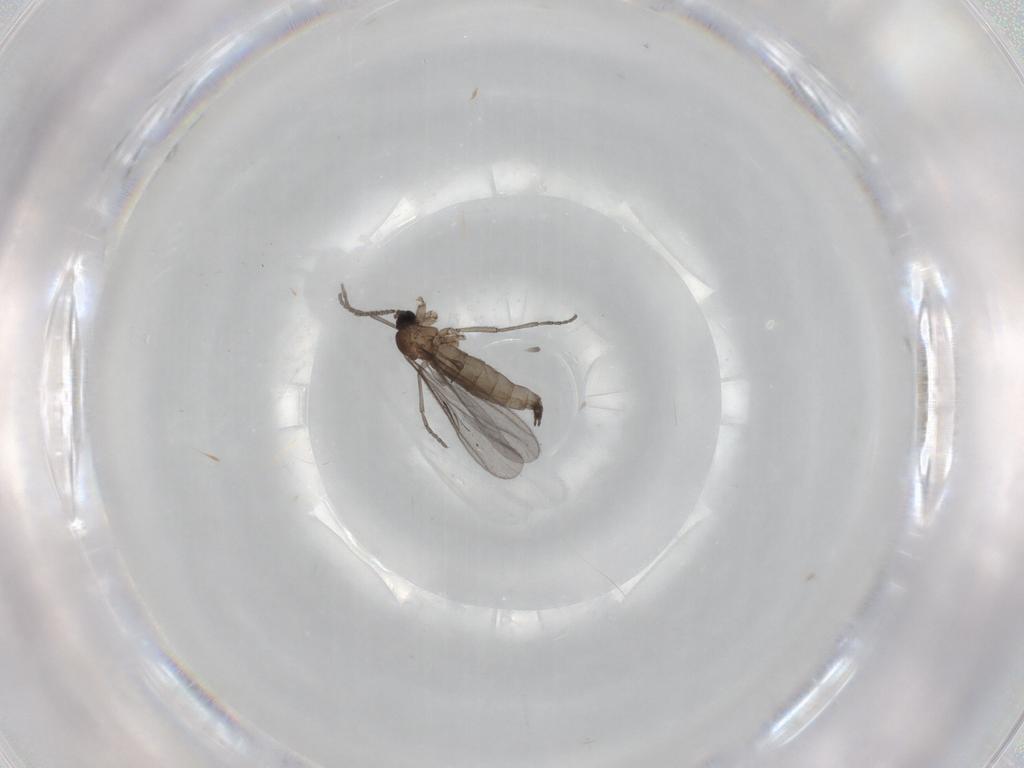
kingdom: Animalia
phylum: Arthropoda
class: Insecta
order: Diptera
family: Sciaridae
